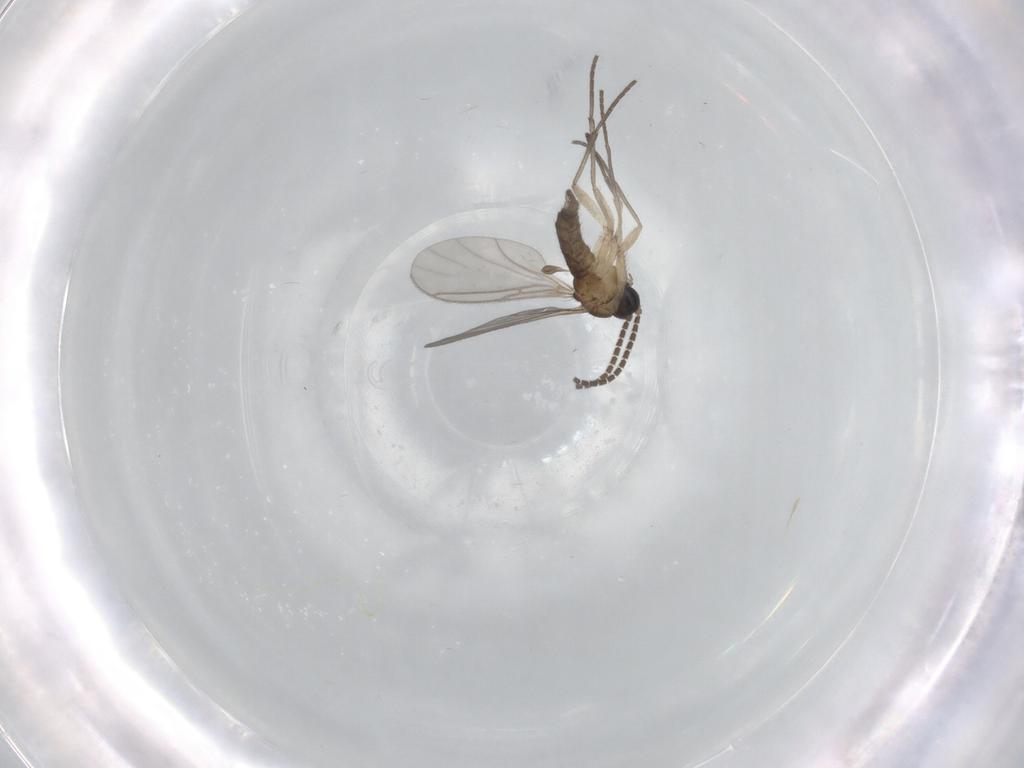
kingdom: Animalia
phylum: Arthropoda
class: Insecta
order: Diptera
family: Sciaridae
